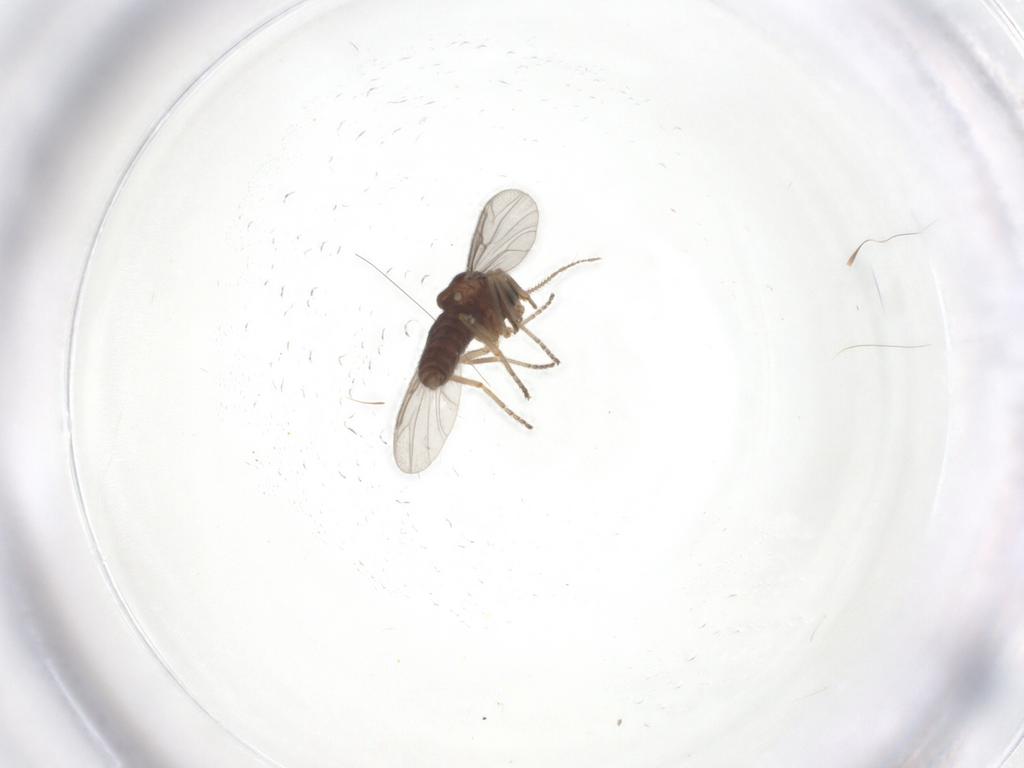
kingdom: Animalia
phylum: Arthropoda
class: Insecta
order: Diptera
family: Ceratopogonidae
